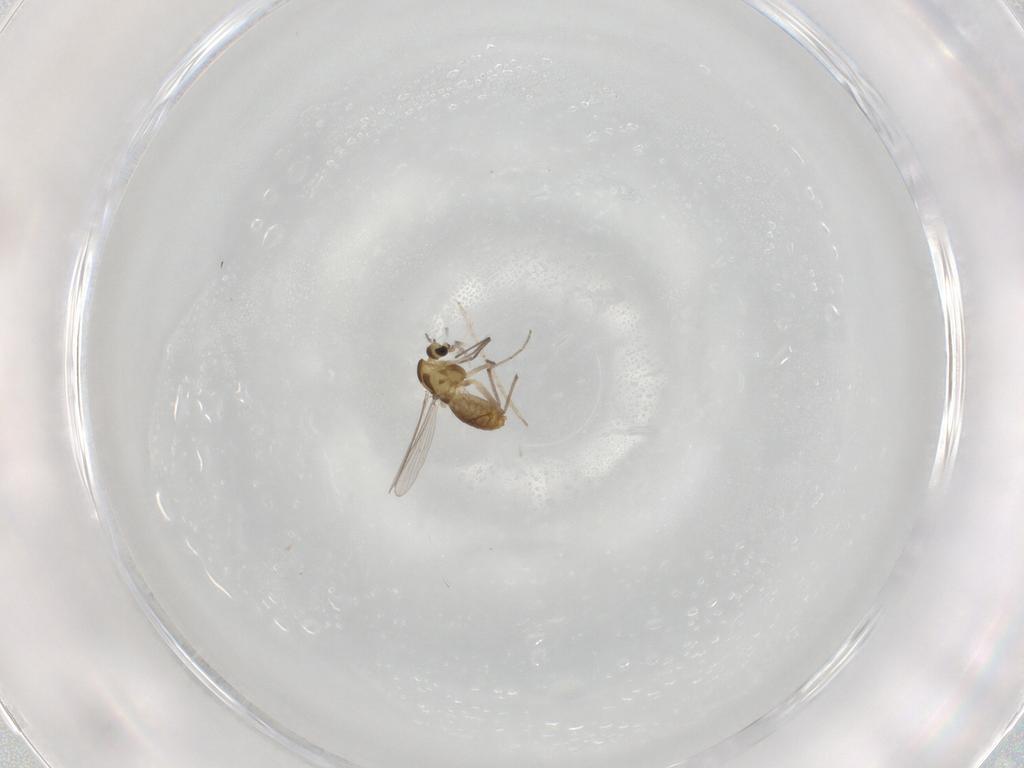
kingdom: Animalia
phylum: Arthropoda
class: Insecta
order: Diptera
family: Chironomidae
